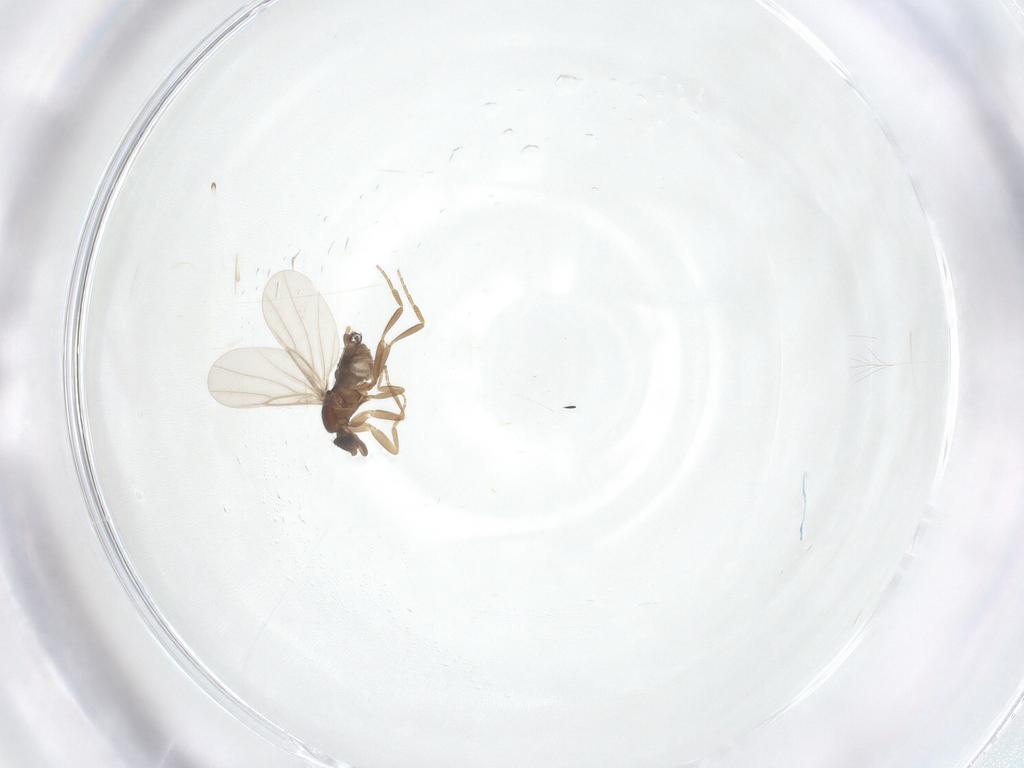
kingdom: Animalia
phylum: Arthropoda
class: Insecta
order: Diptera
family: Phoridae
